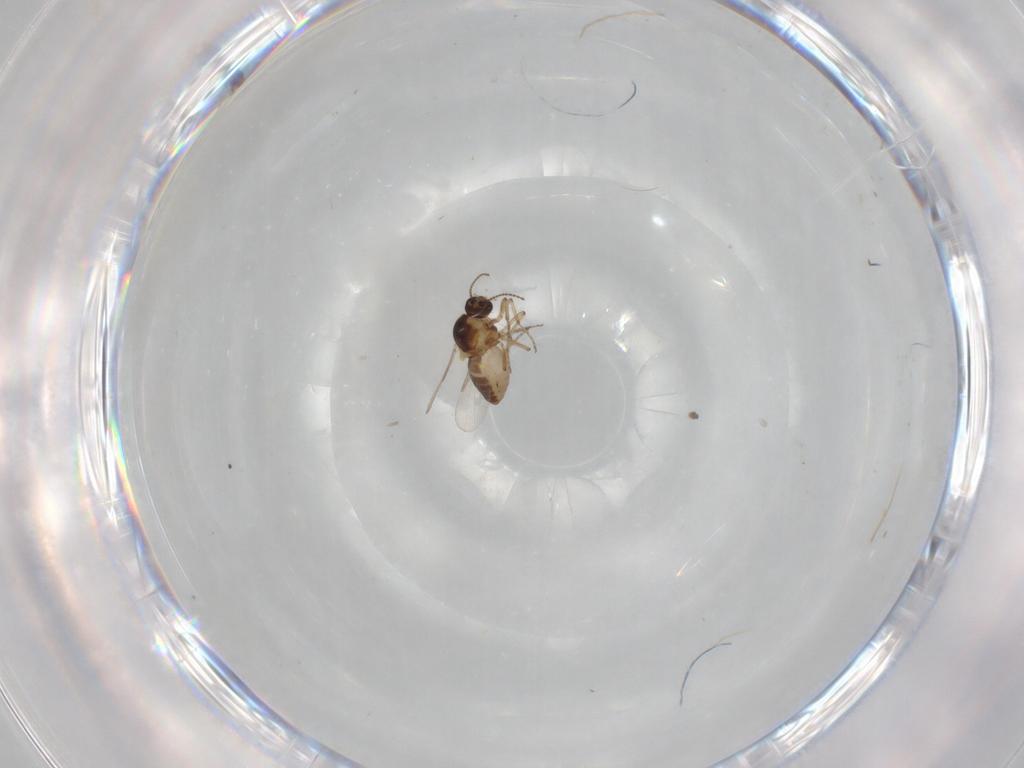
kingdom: Animalia
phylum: Arthropoda
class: Insecta
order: Diptera
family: Ceratopogonidae
